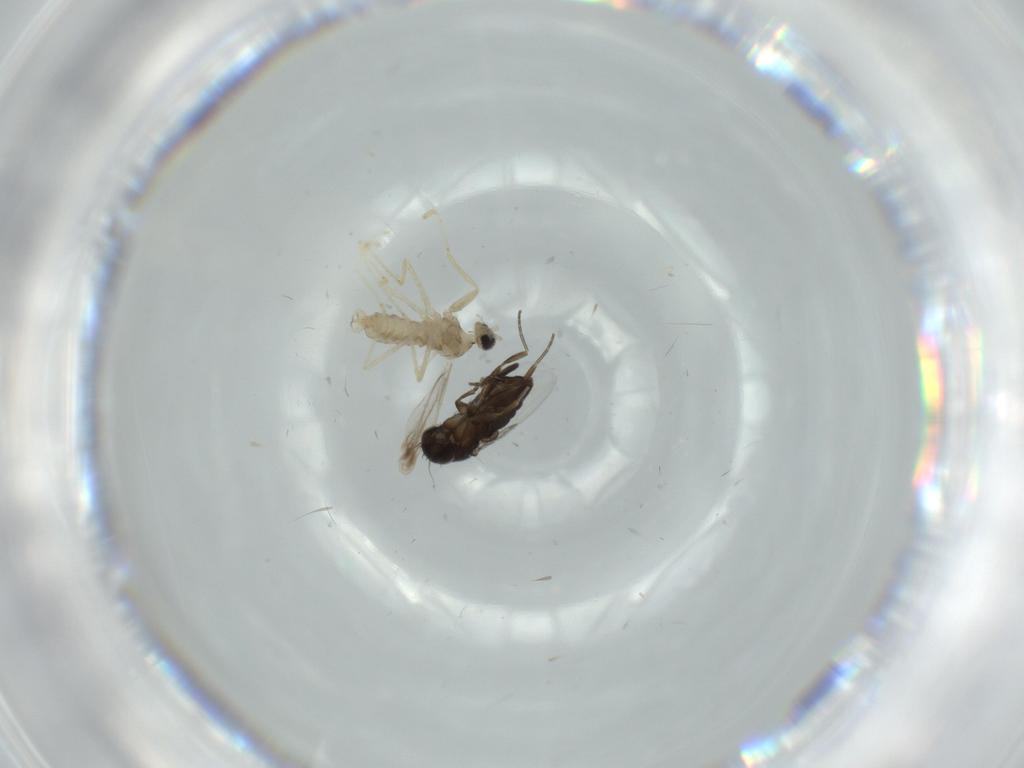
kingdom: Animalia
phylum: Arthropoda
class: Insecta
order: Diptera
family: Phoridae
